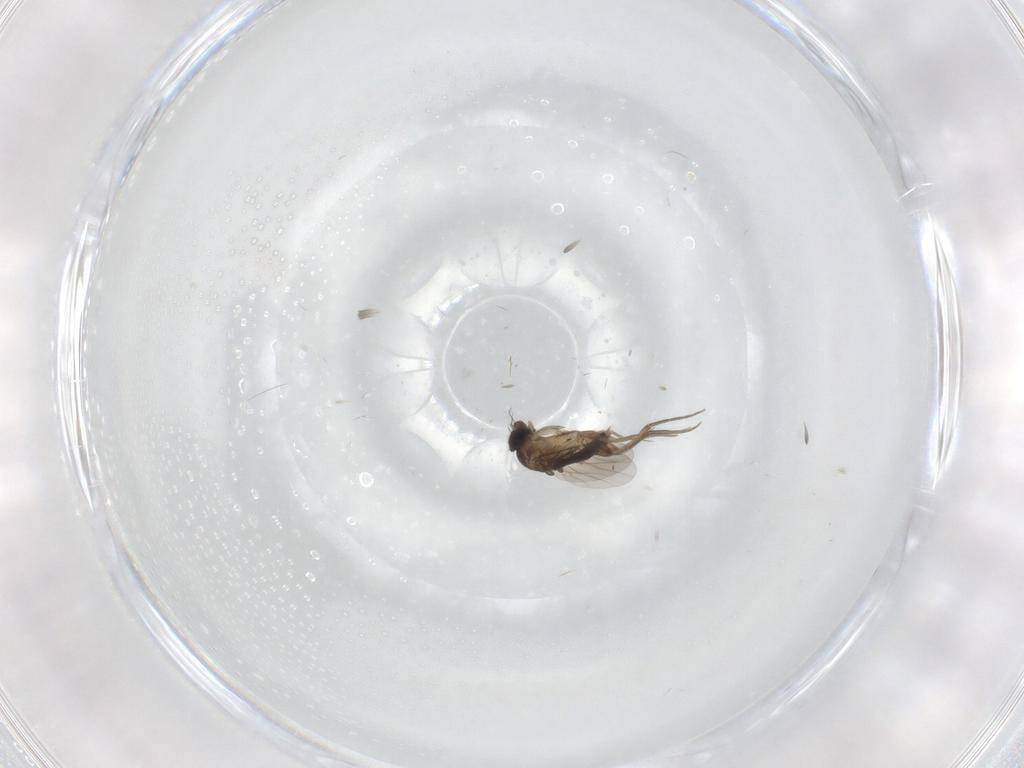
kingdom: Animalia
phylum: Arthropoda
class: Insecta
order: Diptera
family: Phoridae
